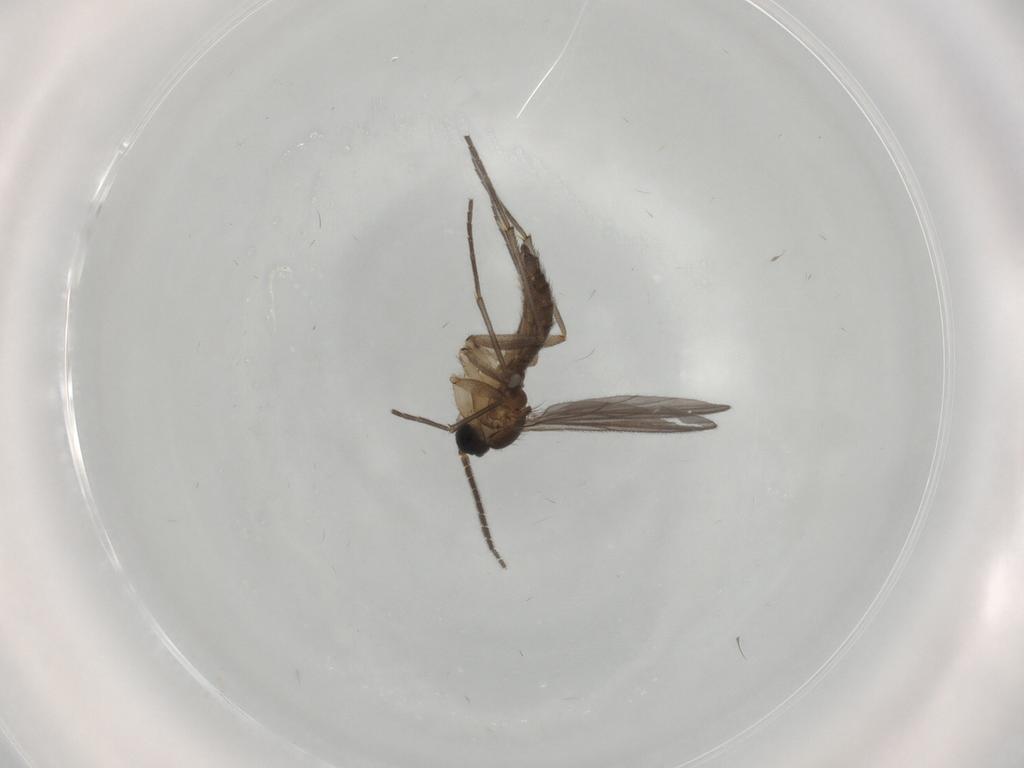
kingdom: Animalia
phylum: Arthropoda
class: Insecta
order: Diptera
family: Sciaridae
